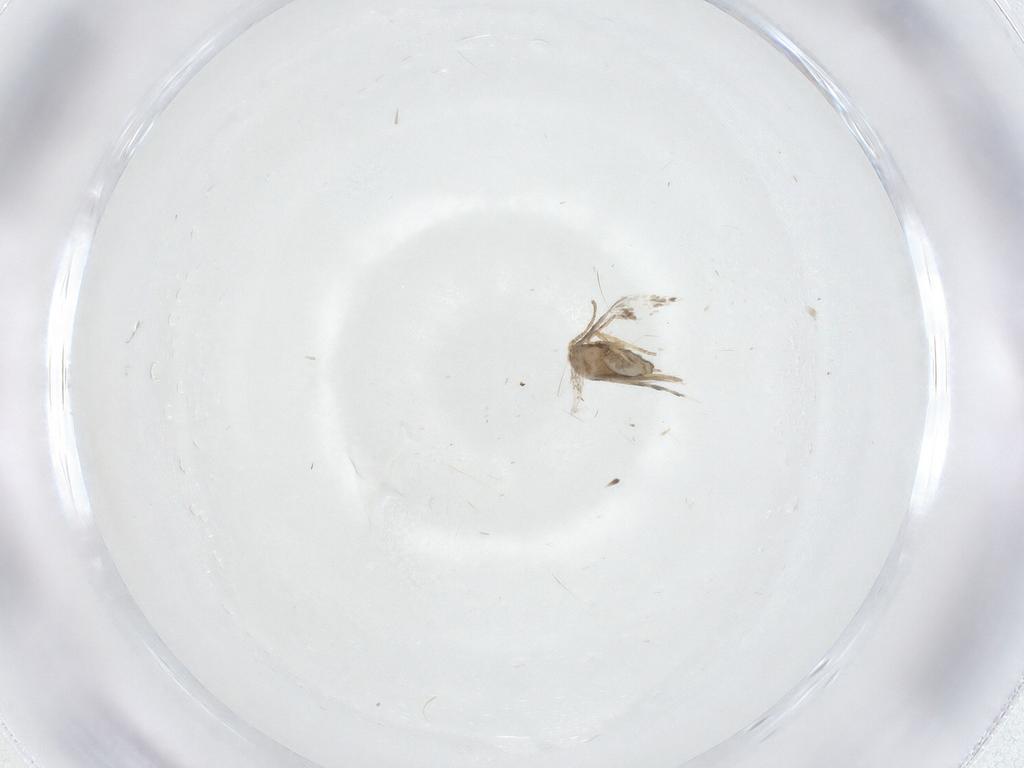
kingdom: Animalia
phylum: Arthropoda
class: Insecta
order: Lepidoptera
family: Nepticulidae
